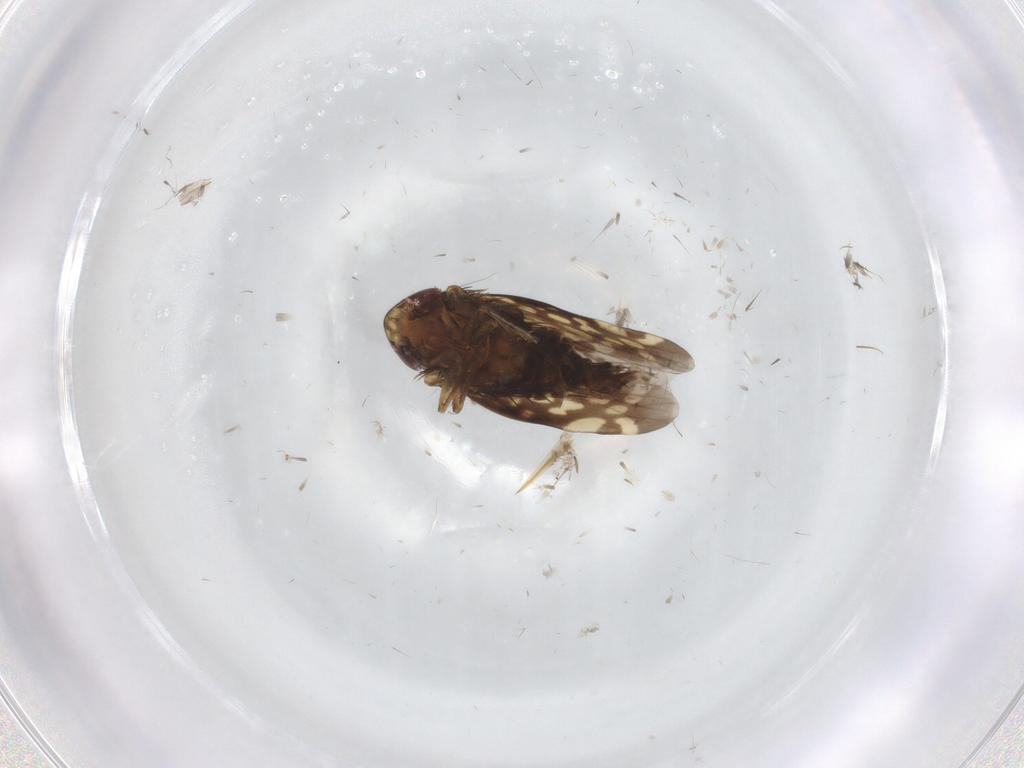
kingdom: Animalia
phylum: Arthropoda
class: Insecta
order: Hemiptera
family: Cicadellidae
